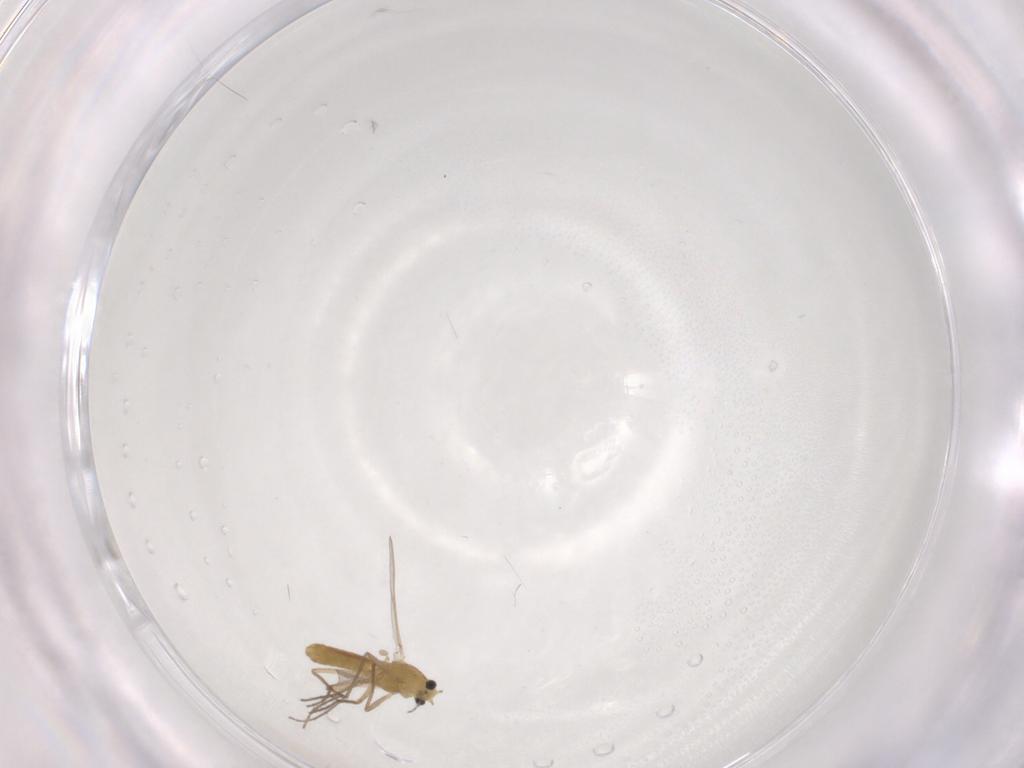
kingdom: Animalia
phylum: Arthropoda
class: Insecta
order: Diptera
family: Chironomidae
